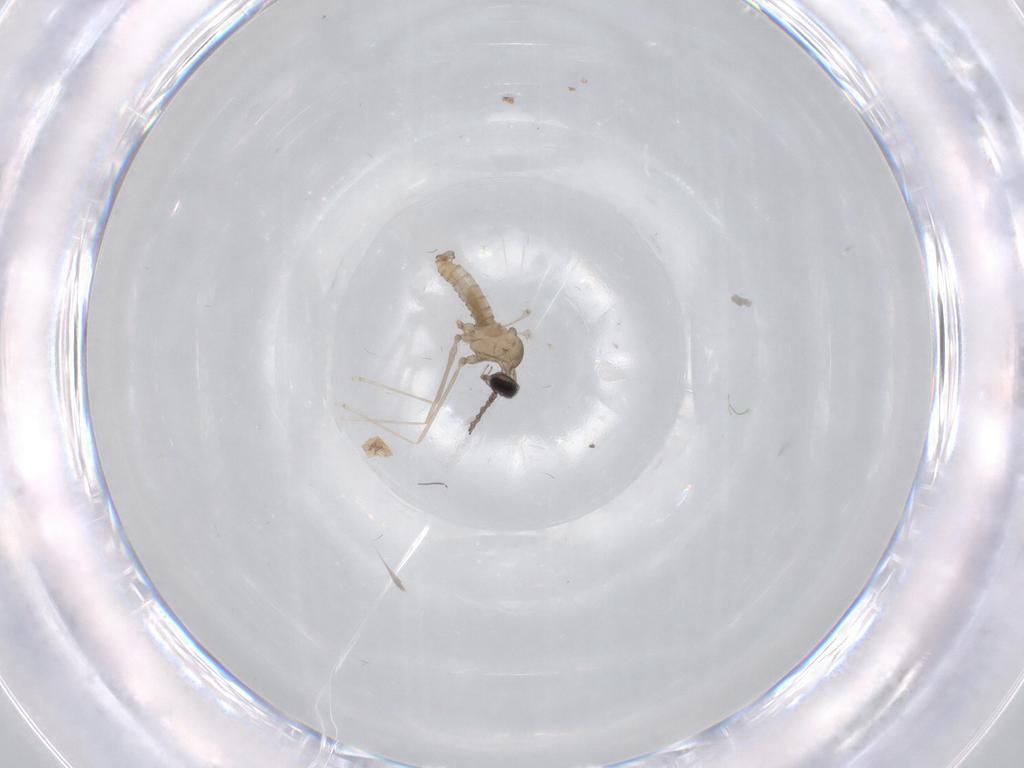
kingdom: Animalia
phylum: Arthropoda
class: Insecta
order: Diptera
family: Cecidomyiidae
